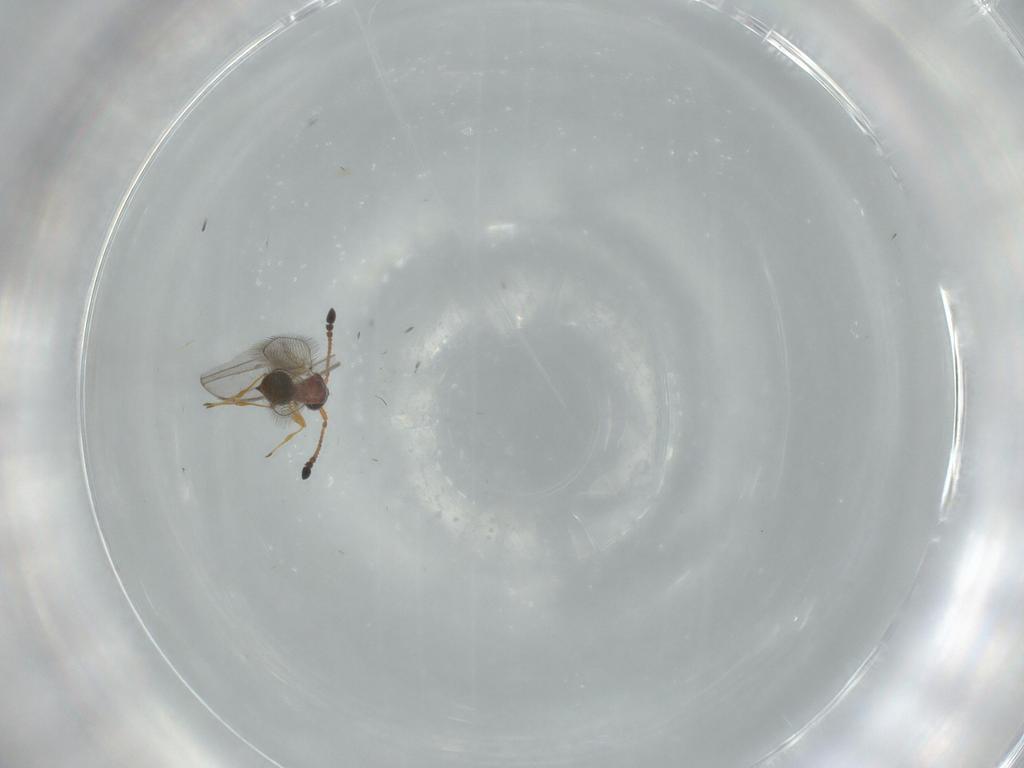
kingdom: Animalia
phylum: Arthropoda
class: Insecta
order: Hymenoptera
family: Diapriidae
